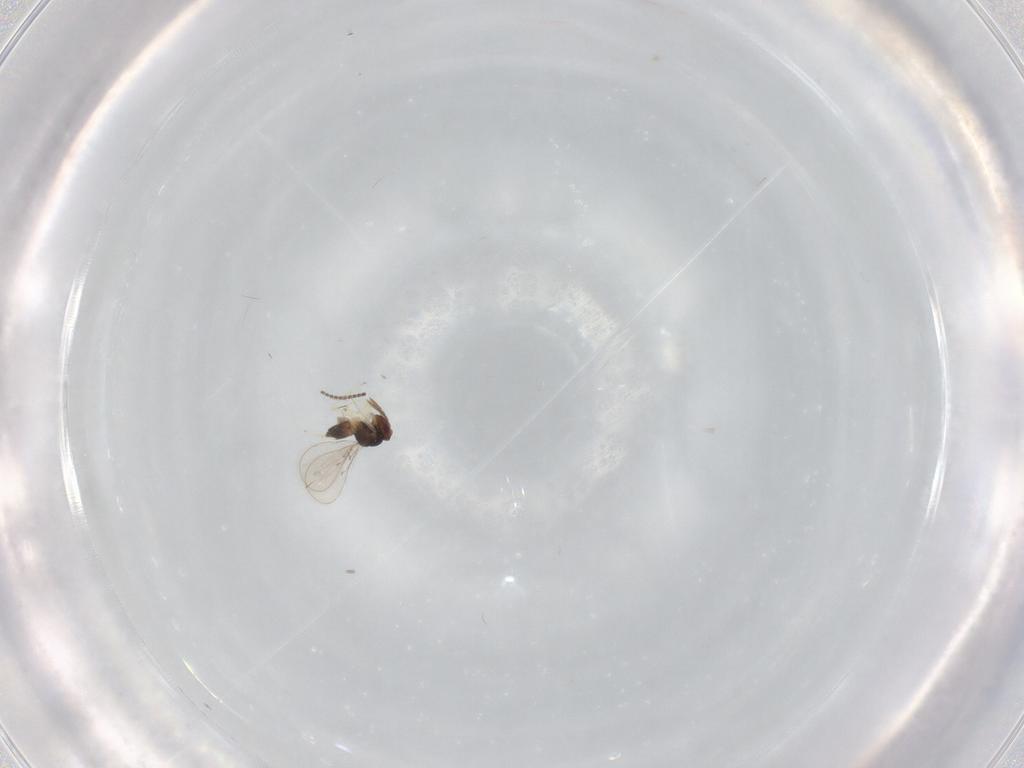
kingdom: Animalia
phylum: Arthropoda
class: Insecta
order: Hymenoptera
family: Eulophidae
